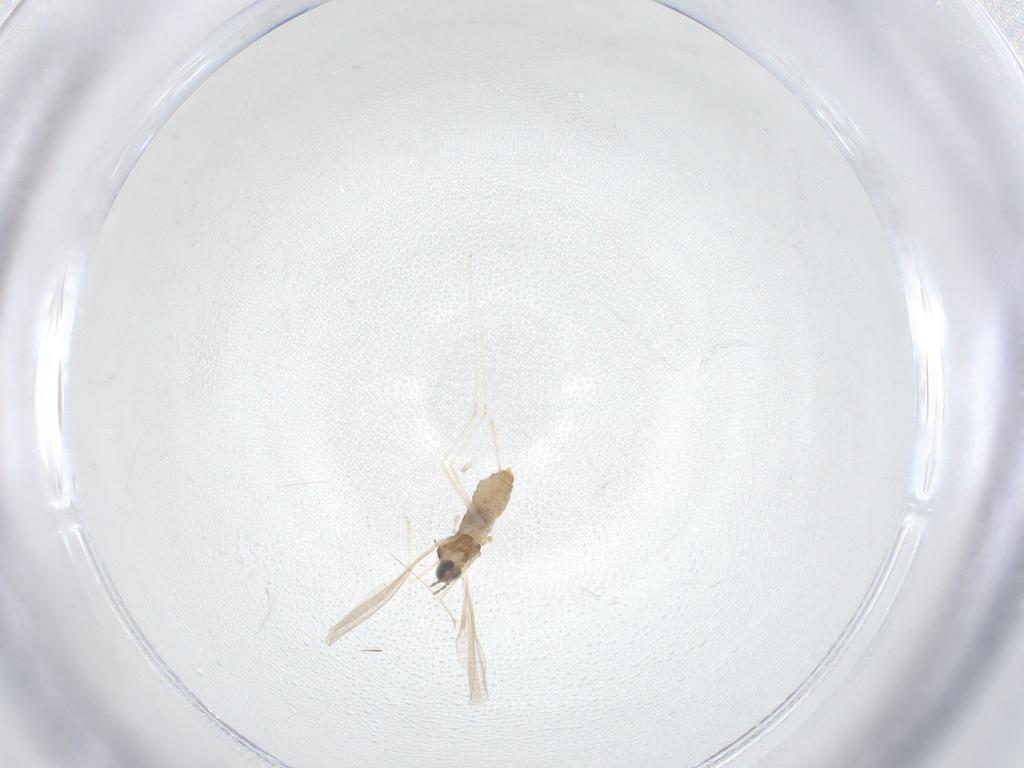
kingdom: Animalia
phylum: Arthropoda
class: Insecta
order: Diptera
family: Cecidomyiidae
